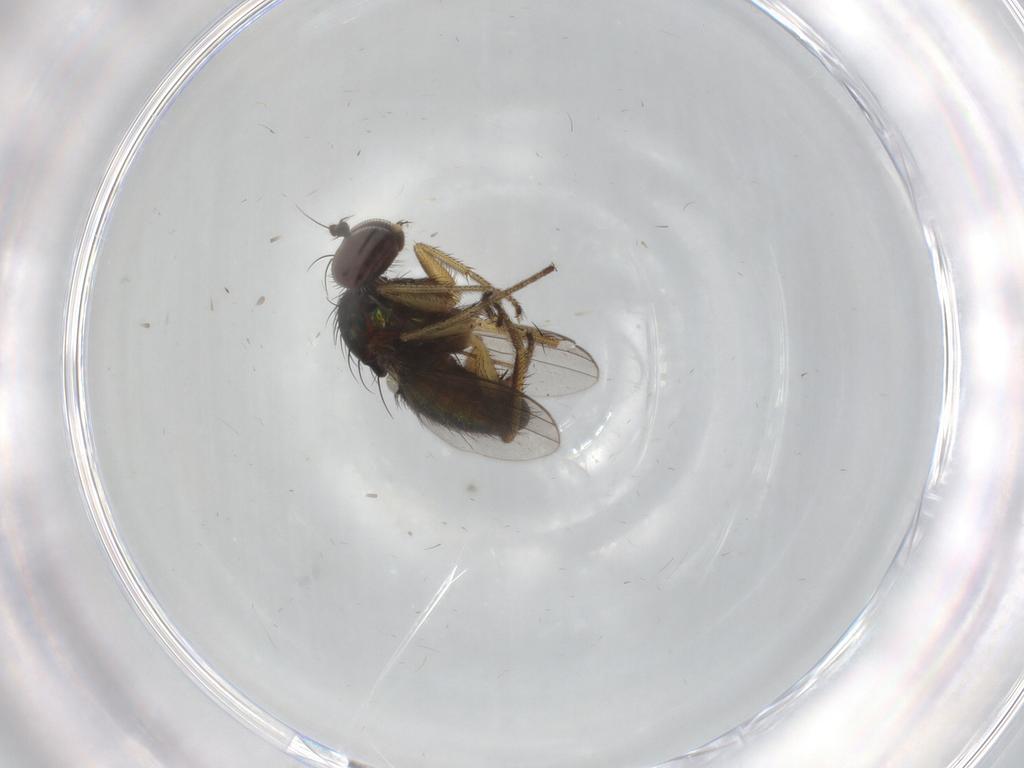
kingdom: Animalia
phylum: Arthropoda
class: Insecta
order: Diptera
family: Dolichopodidae
